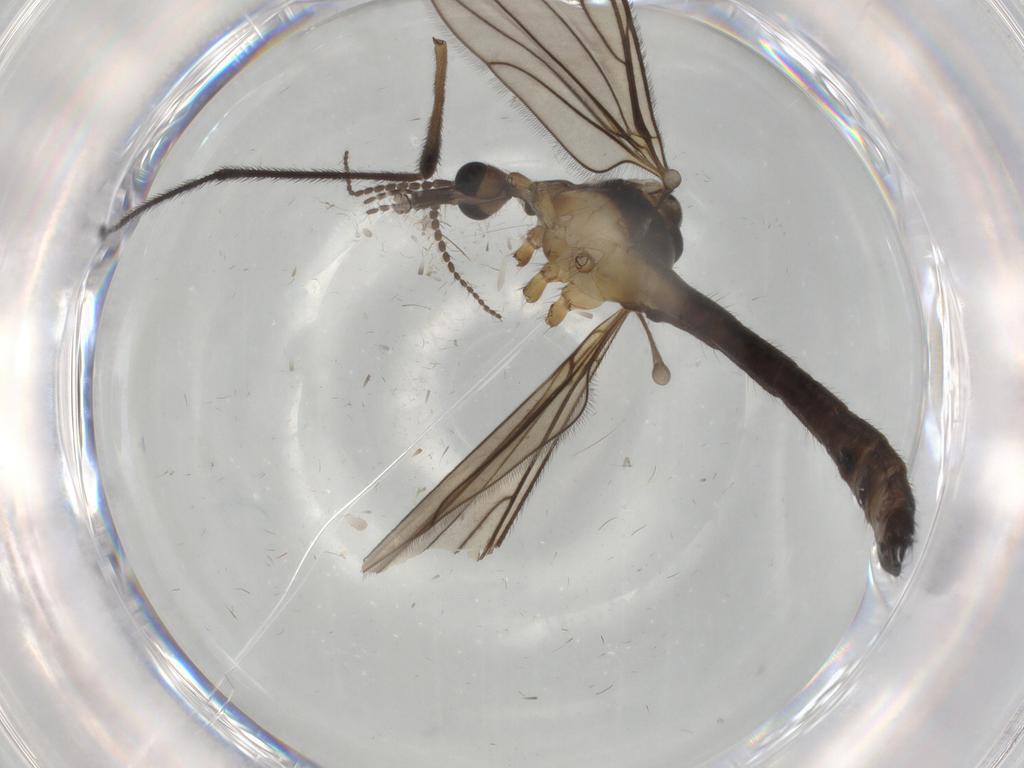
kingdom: Animalia
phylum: Arthropoda
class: Insecta
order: Diptera
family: Limoniidae
